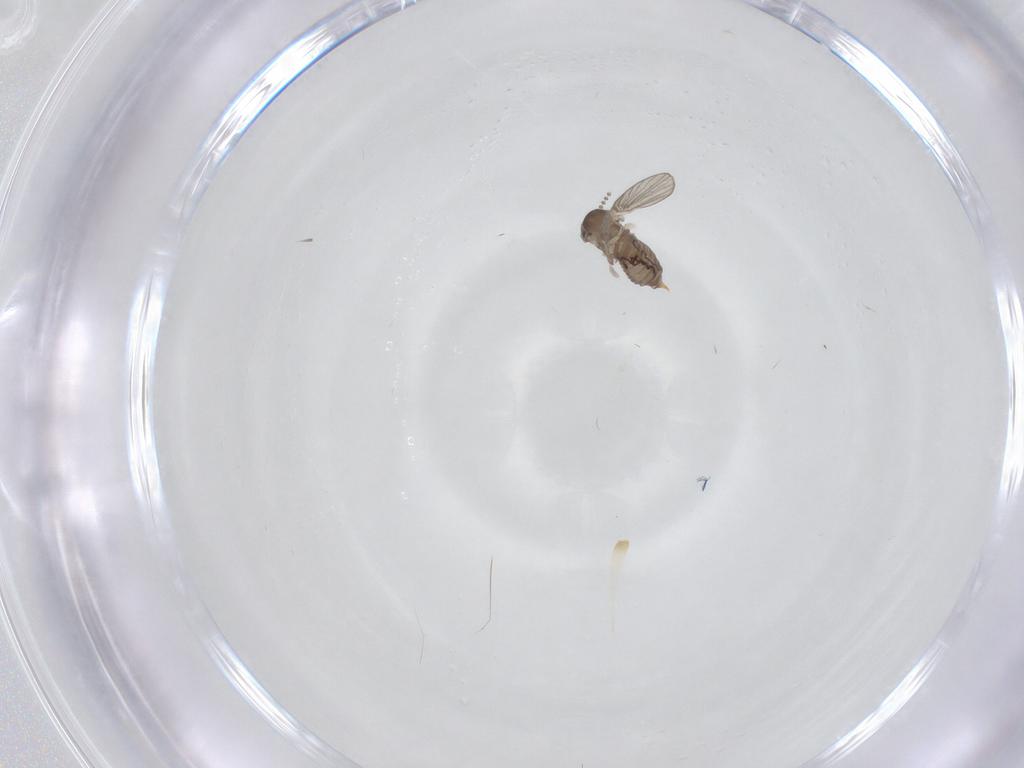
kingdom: Animalia
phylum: Arthropoda
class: Insecta
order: Diptera
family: Psychodidae
